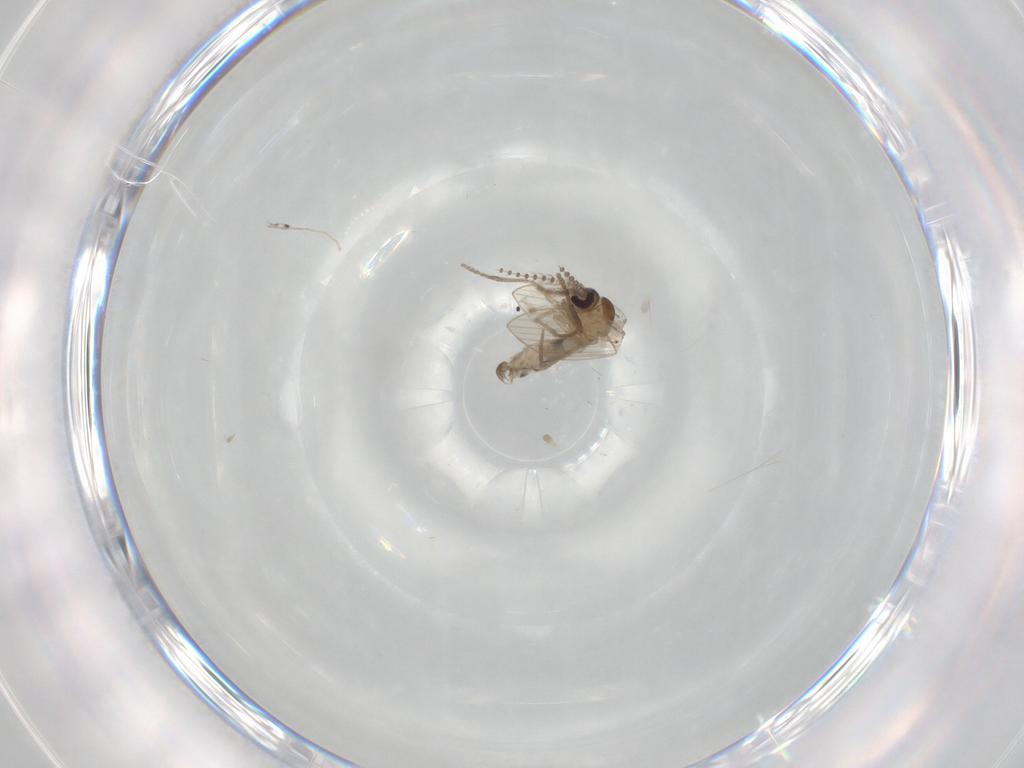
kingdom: Animalia
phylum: Arthropoda
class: Insecta
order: Diptera
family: Psychodidae
